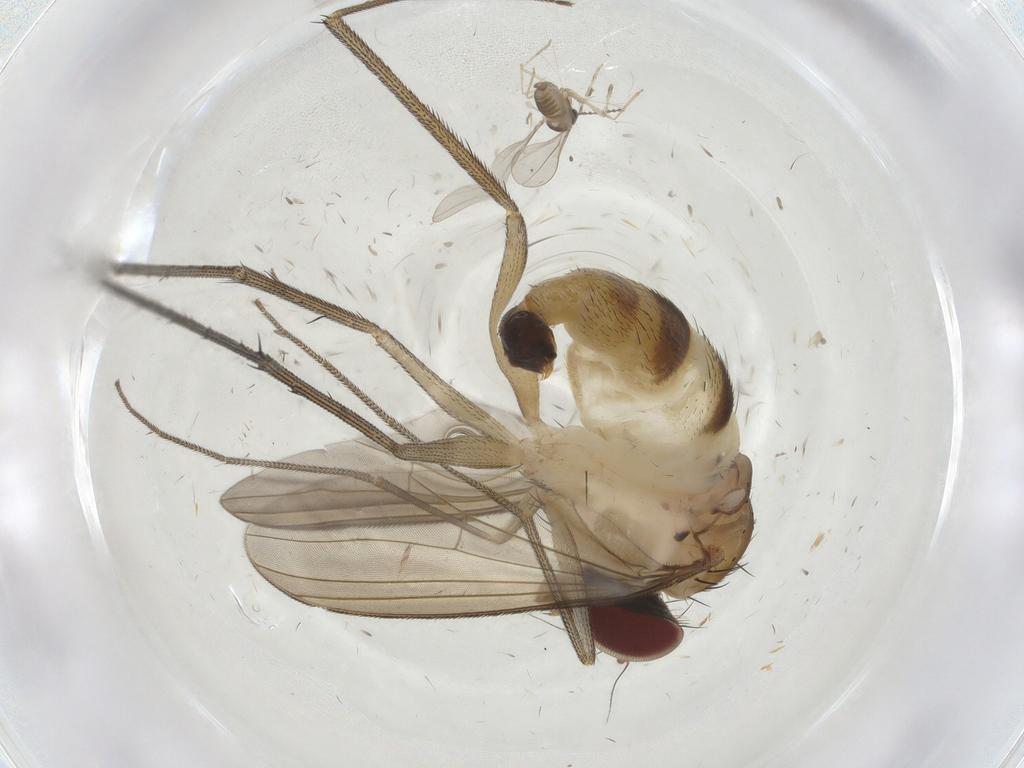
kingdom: Animalia
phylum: Arthropoda
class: Insecta
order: Diptera
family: Dolichopodidae
